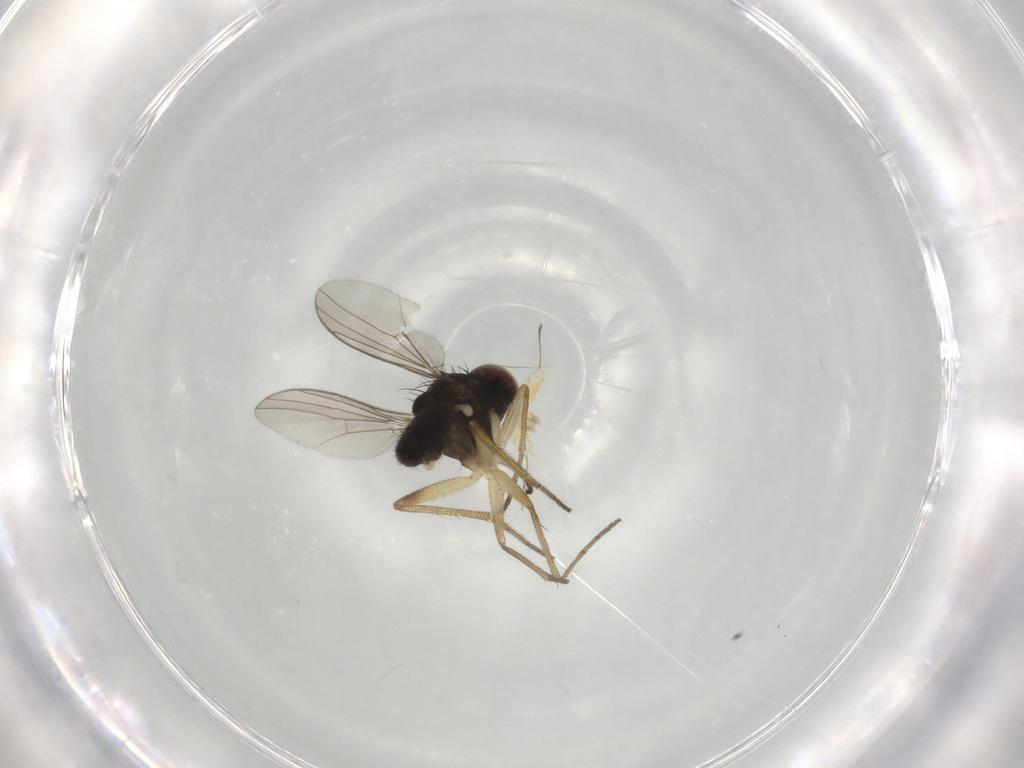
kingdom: Animalia
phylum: Arthropoda
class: Insecta
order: Diptera
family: Dolichopodidae
